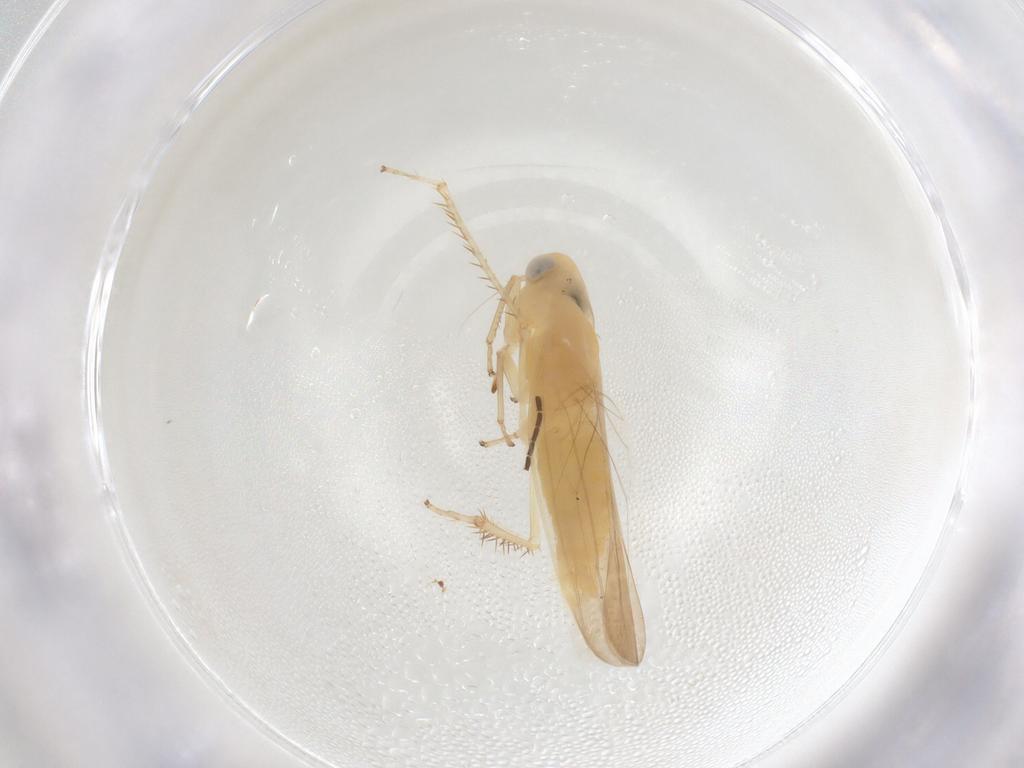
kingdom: Animalia
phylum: Arthropoda
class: Insecta
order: Hemiptera
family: Cicadellidae
